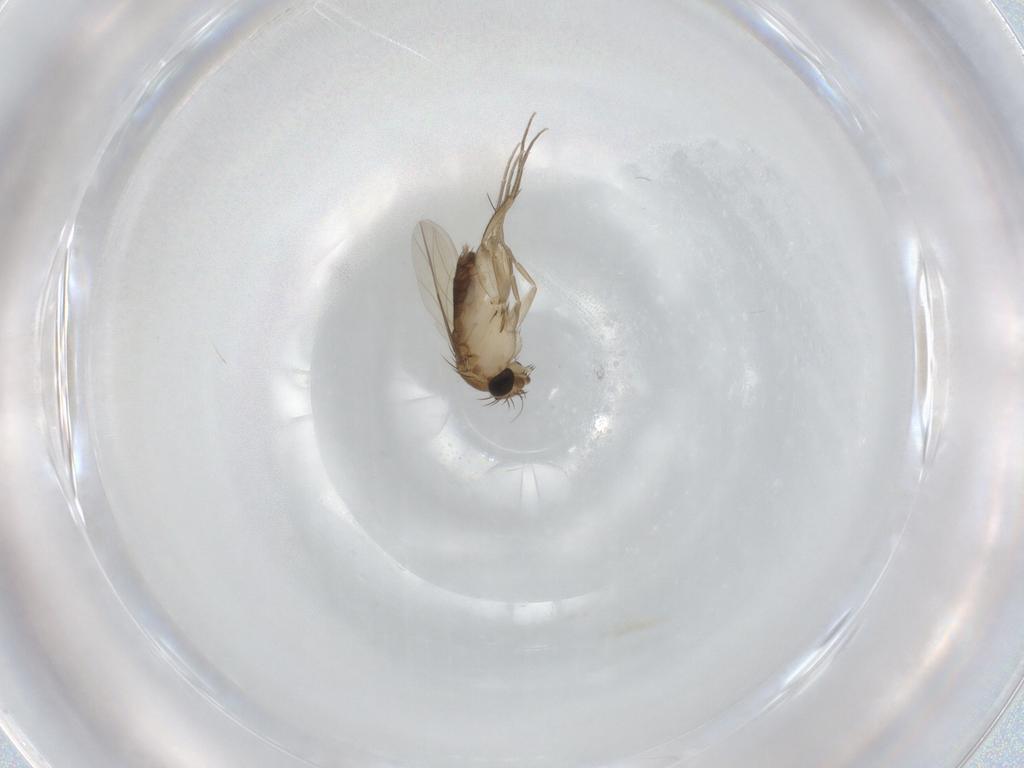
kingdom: Animalia
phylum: Arthropoda
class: Insecta
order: Diptera
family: Phoridae
